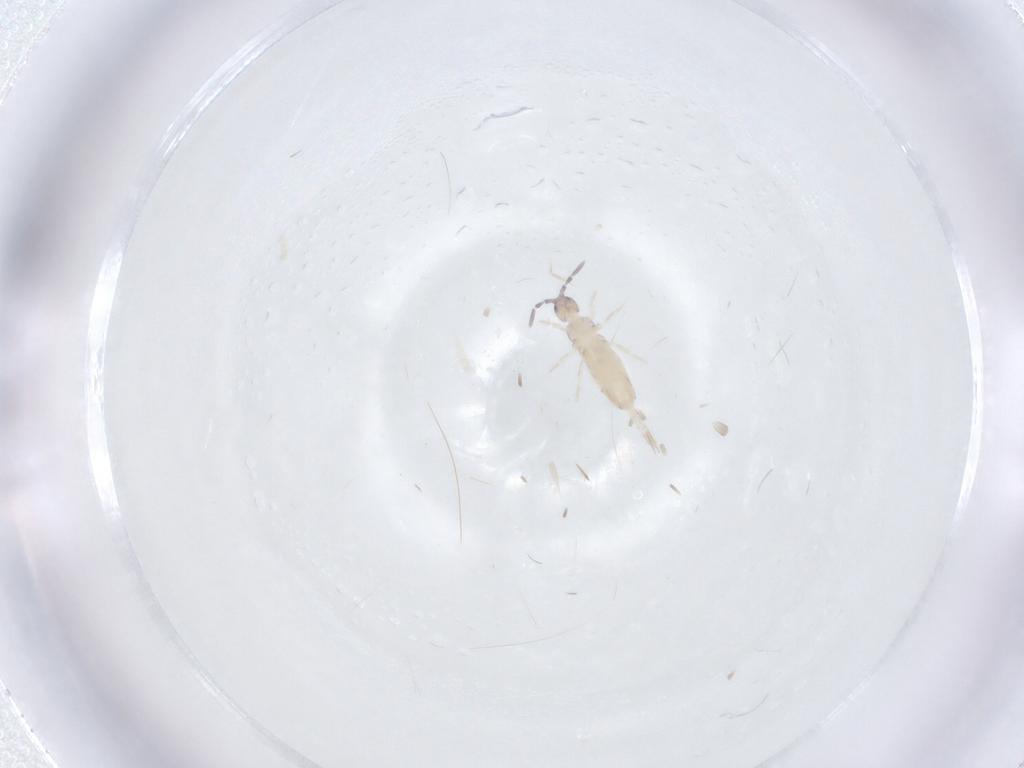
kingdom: Animalia
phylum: Arthropoda
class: Collembola
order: Entomobryomorpha
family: Entomobryidae
